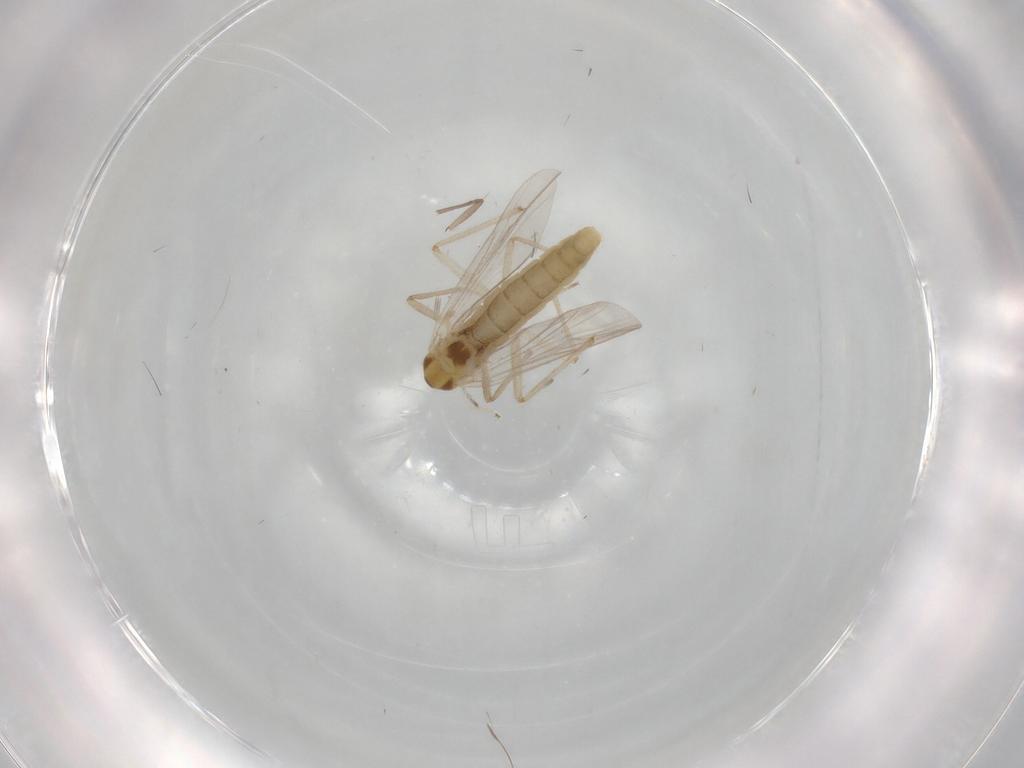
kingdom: Animalia
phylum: Arthropoda
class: Insecta
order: Diptera
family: Chironomidae
